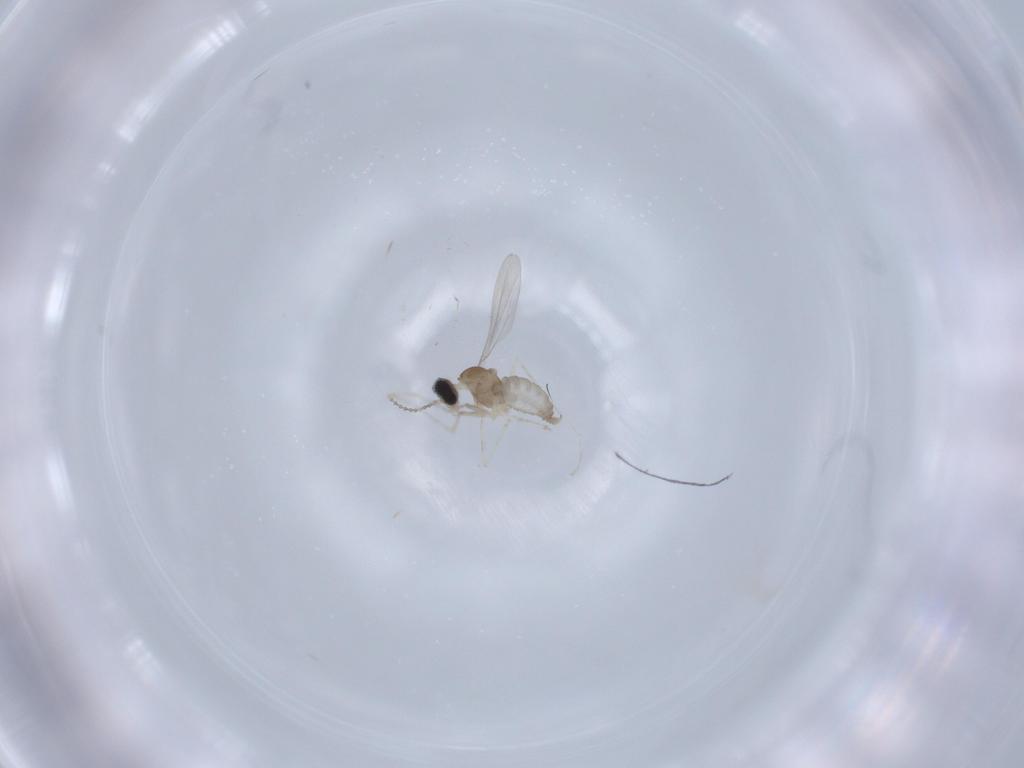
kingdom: Animalia
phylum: Arthropoda
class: Insecta
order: Diptera
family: Cecidomyiidae
